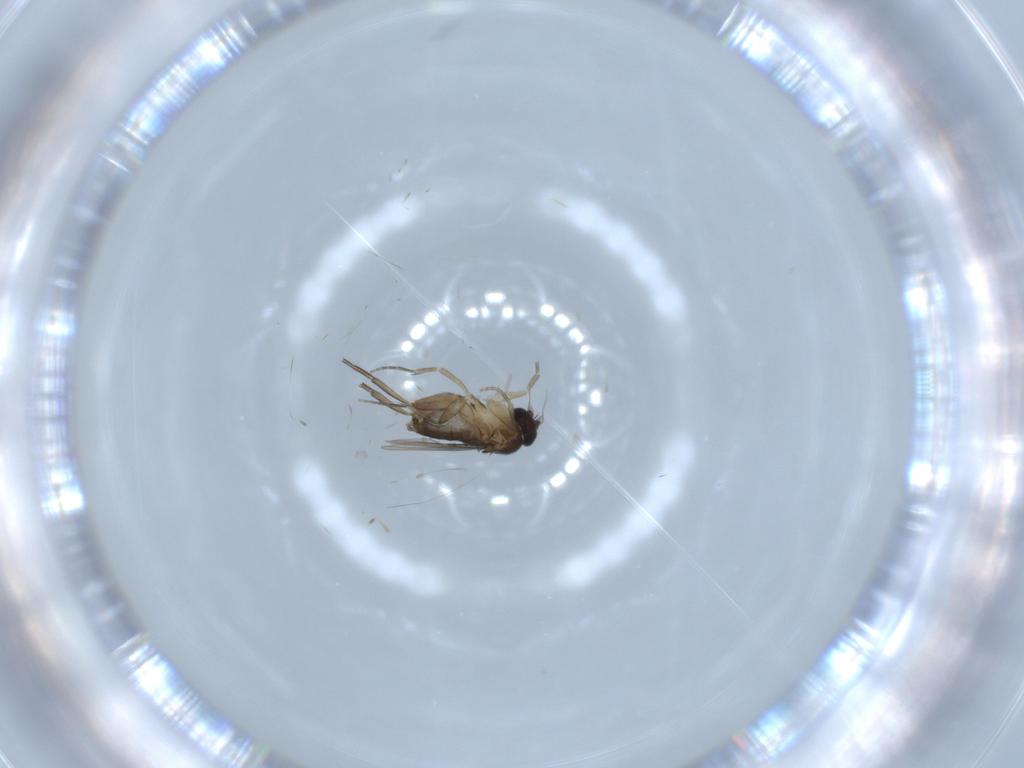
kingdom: Animalia
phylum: Arthropoda
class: Insecta
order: Diptera
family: Phoridae
